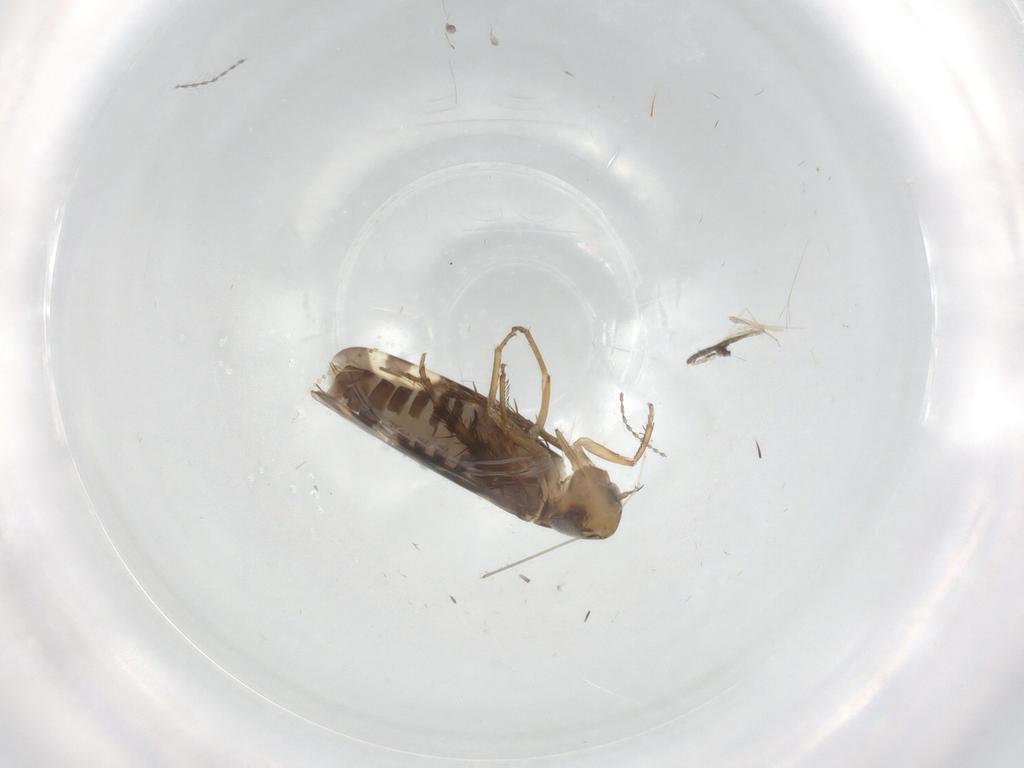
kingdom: Animalia
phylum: Arthropoda
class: Insecta
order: Hemiptera
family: Cicadellidae
